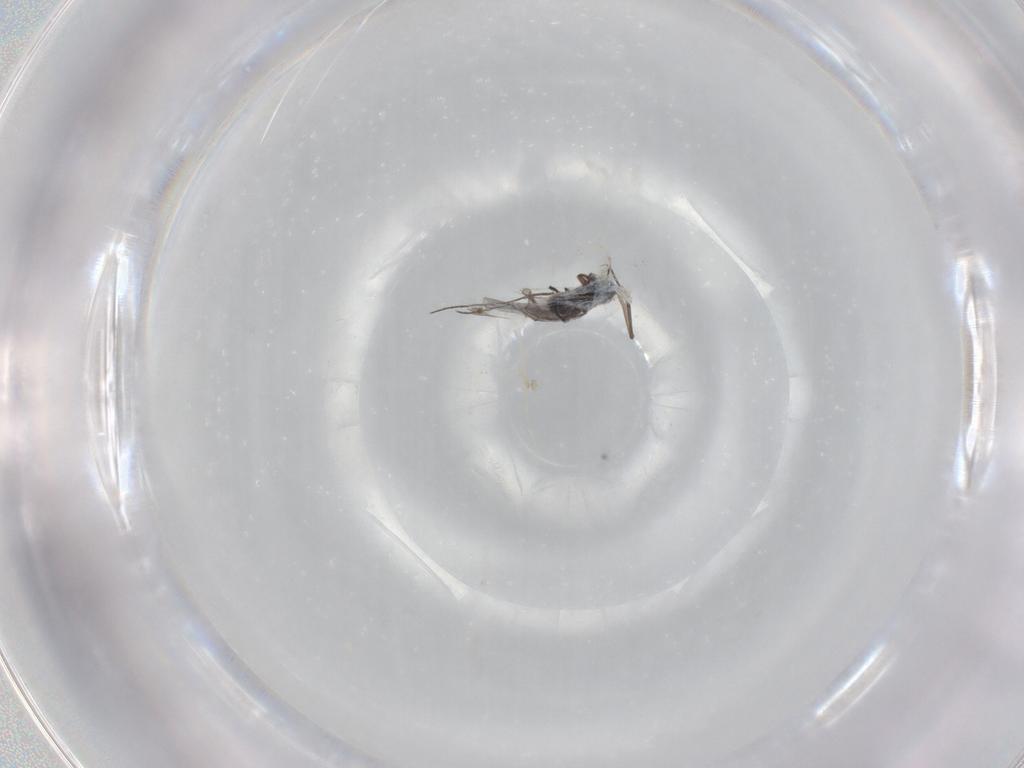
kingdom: Animalia
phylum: Arthropoda
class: Insecta
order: Diptera
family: Sciaridae
